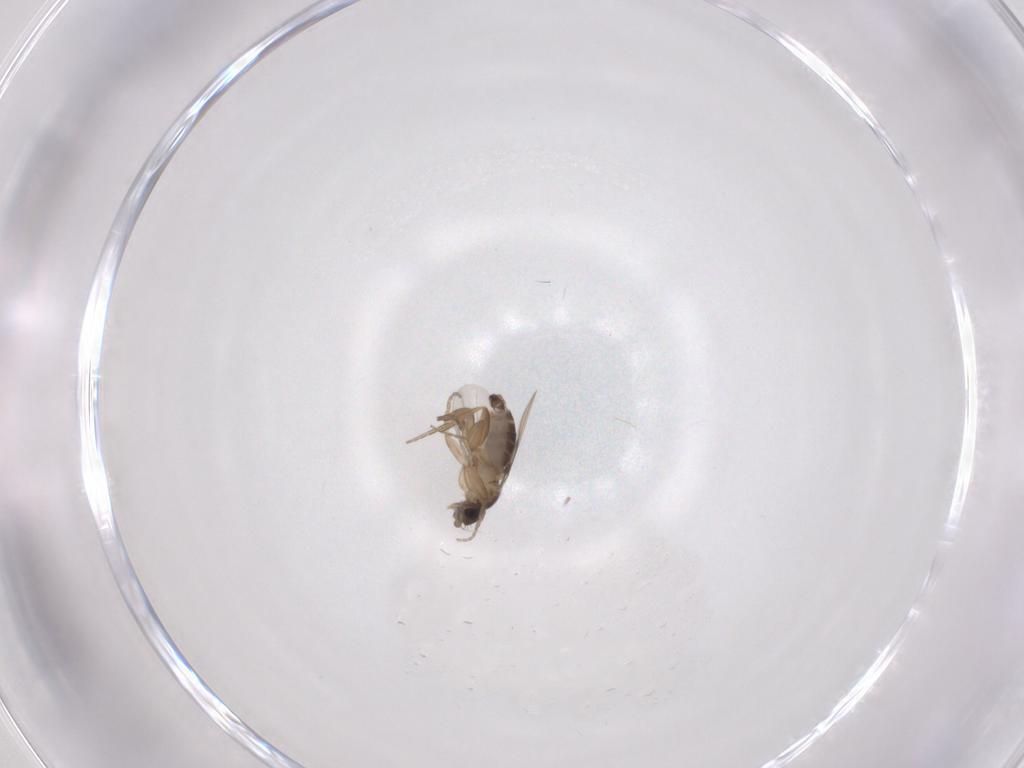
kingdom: Animalia
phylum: Arthropoda
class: Insecta
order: Diptera
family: Phoridae
